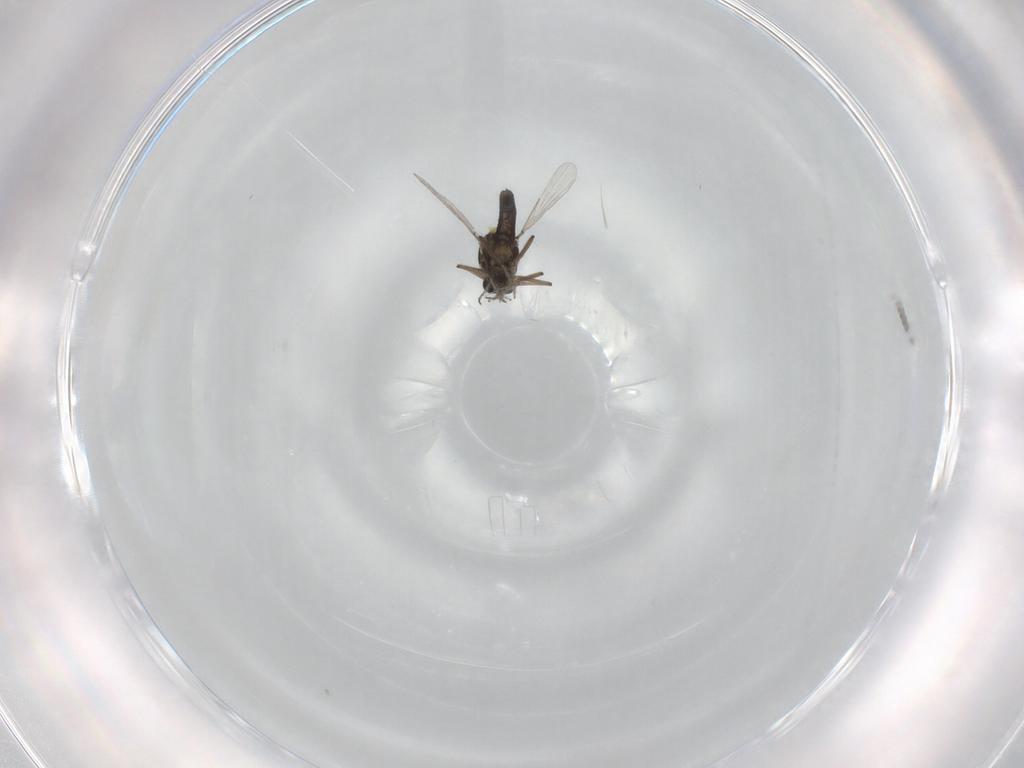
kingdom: Animalia
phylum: Arthropoda
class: Insecta
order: Diptera
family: Ceratopogonidae
